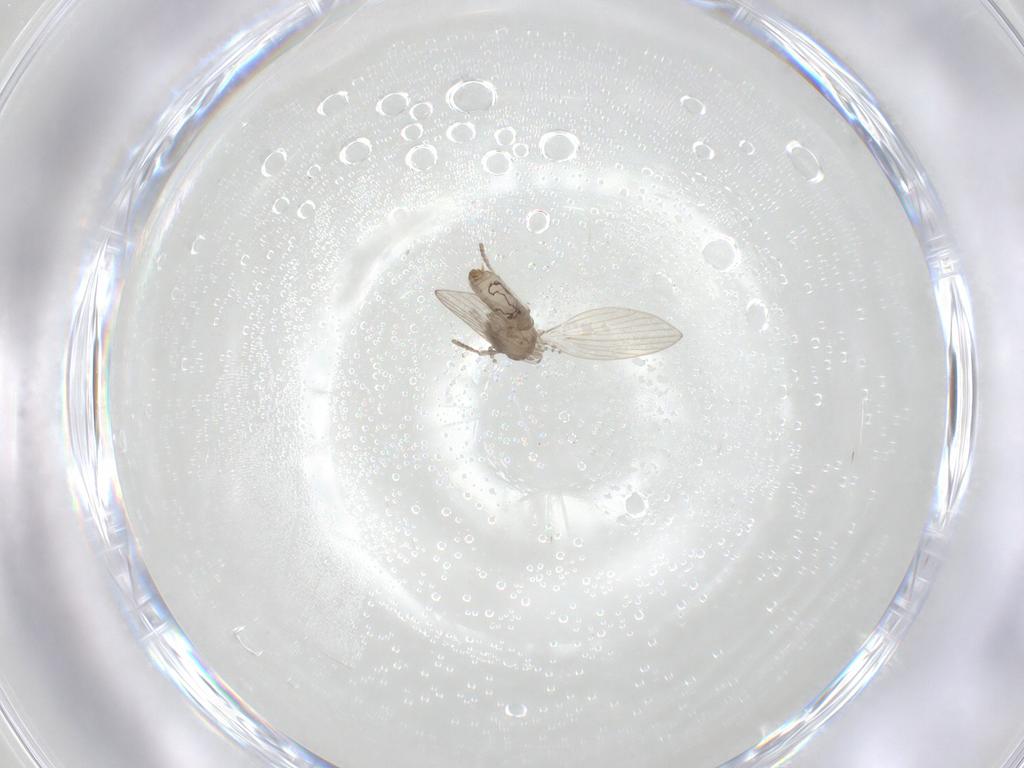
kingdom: Animalia
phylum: Arthropoda
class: Insecta
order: Diptera
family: Psychodidae
